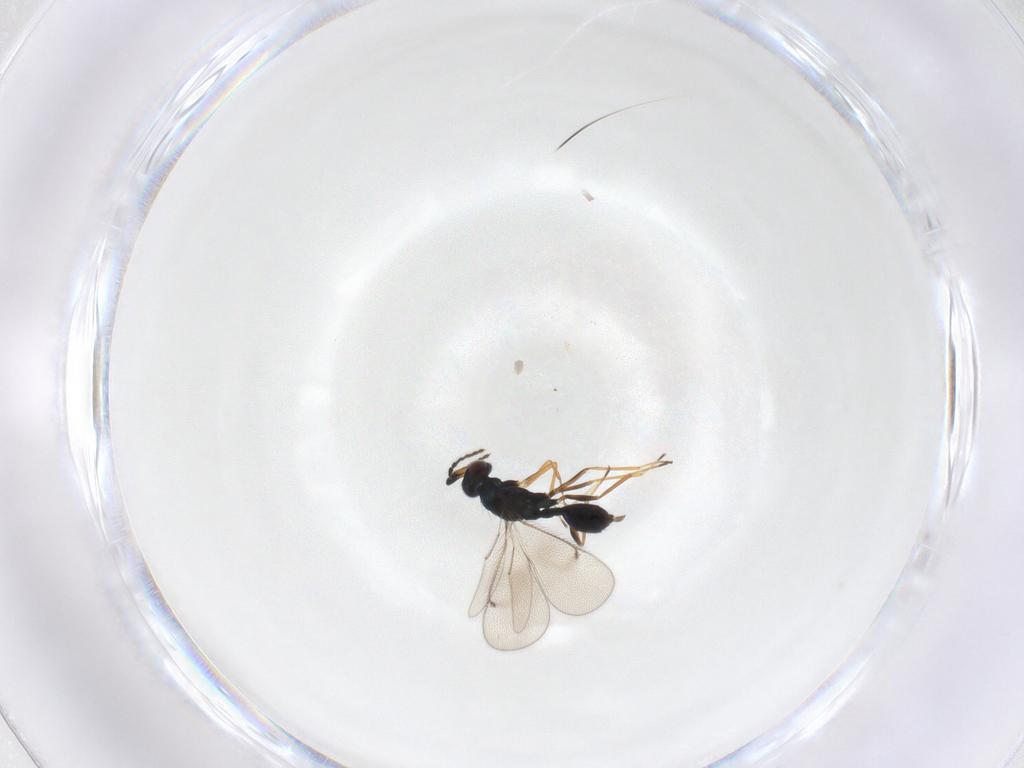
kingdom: Animalia
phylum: Arthropoda
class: Insecta
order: Hymenoptera
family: Eulophidae
